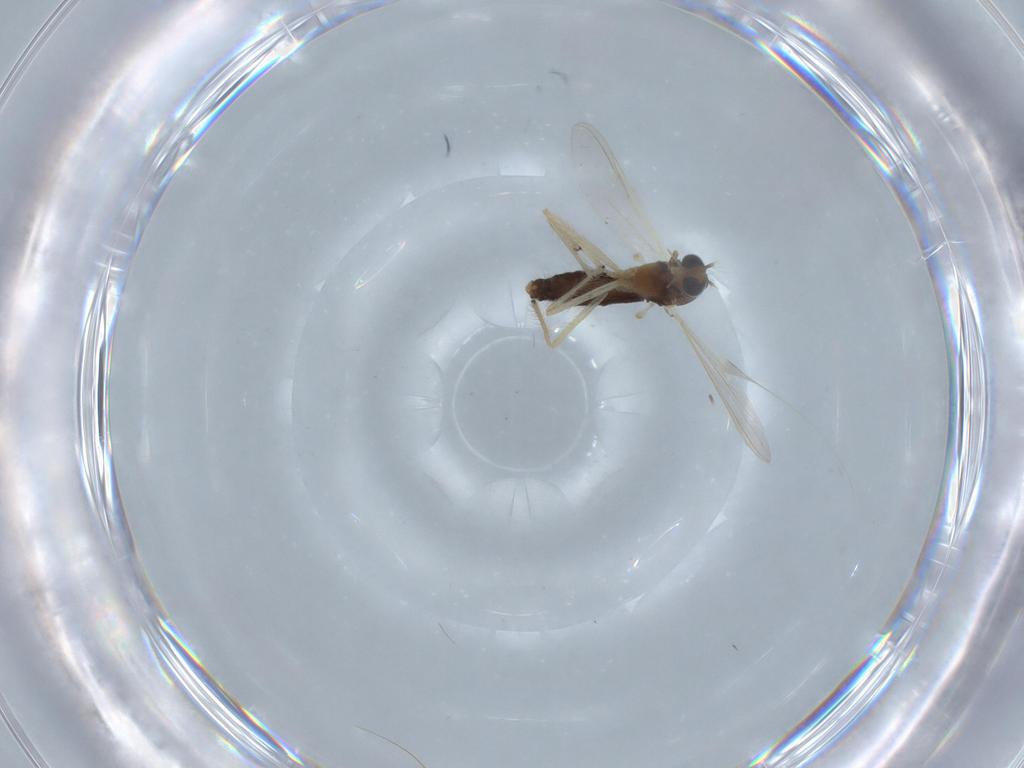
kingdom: Animalia
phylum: Arthropoda
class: Insecta
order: Diptera
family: Chironomidae
